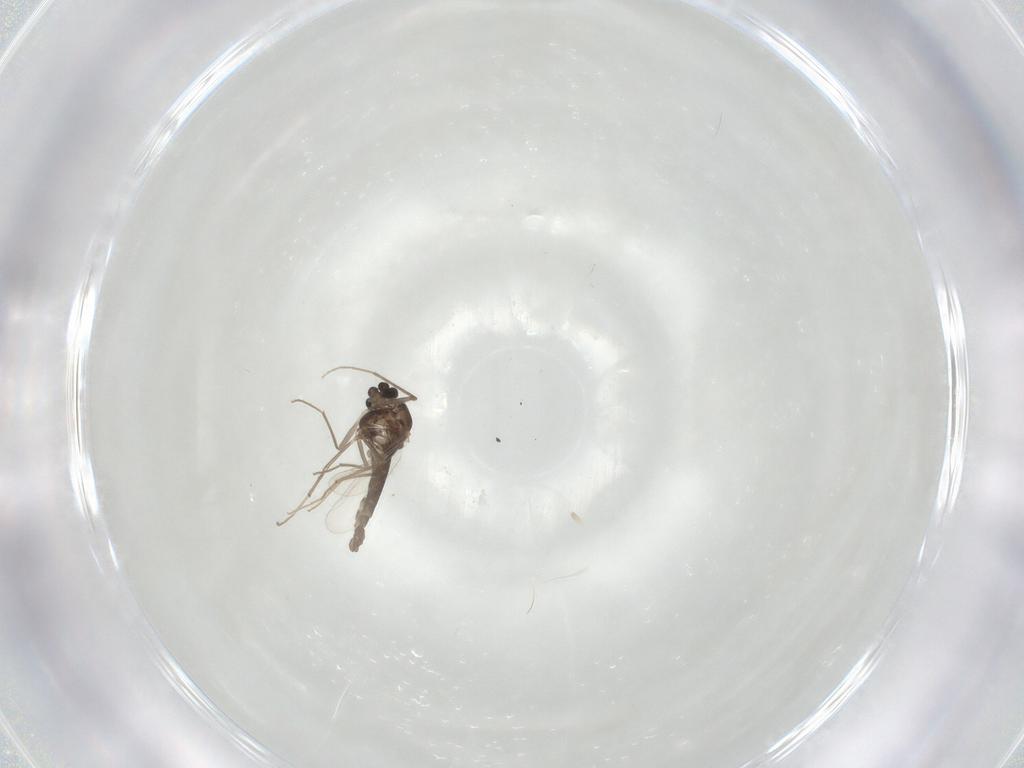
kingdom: Animalia
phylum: Arthropoda
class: Insecta
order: Diptera
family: Chironomidae
